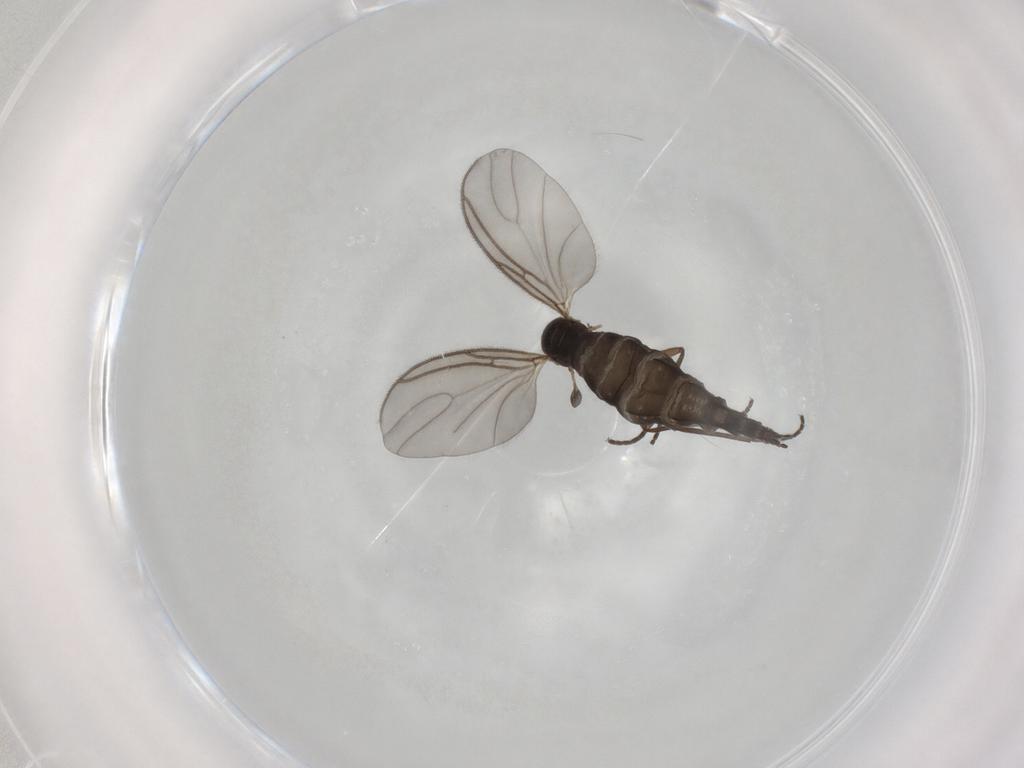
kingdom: Animalia
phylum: Arthropoda
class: Insecta
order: Diptera
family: Sciaridae
